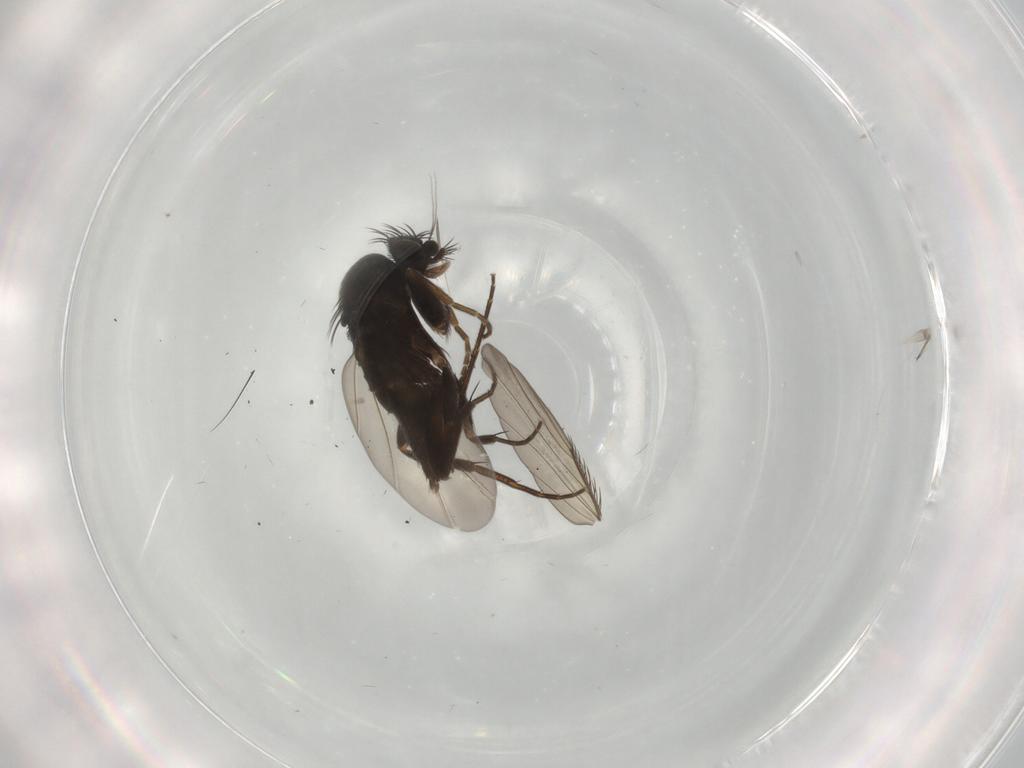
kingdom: Animalia
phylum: Arthropoda
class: Insecta
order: Diptera
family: Phoridae
